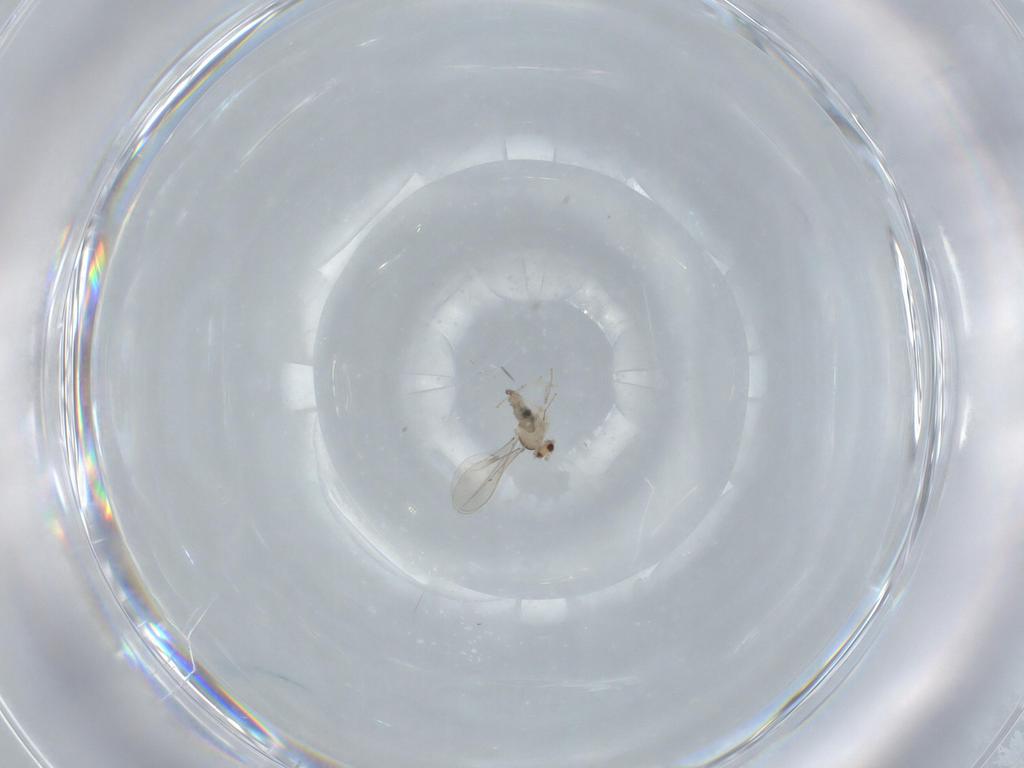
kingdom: Animalia
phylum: Arthropoda
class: Insecta
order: Diptera
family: Cecidomyiidae
